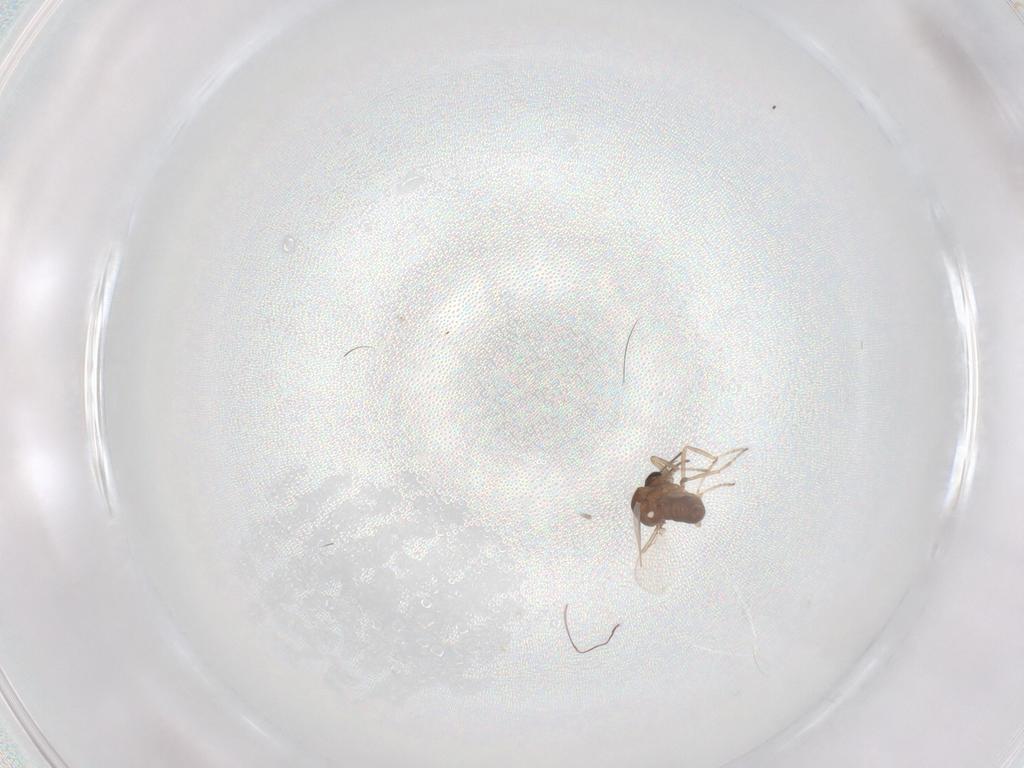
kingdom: Animalia
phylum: Arthropoda
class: Insecta
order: Diptera
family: Ceratopogonidae
